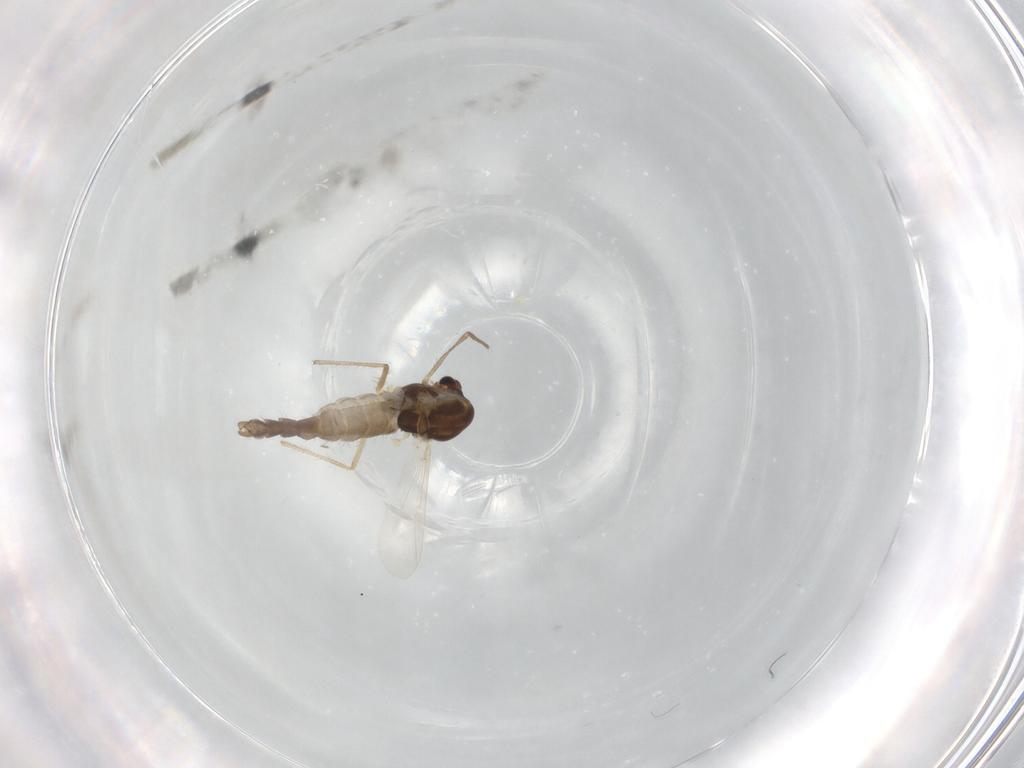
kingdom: Animalia
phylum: Arthropoda
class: Insecta
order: Diptera
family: Chironomidae
